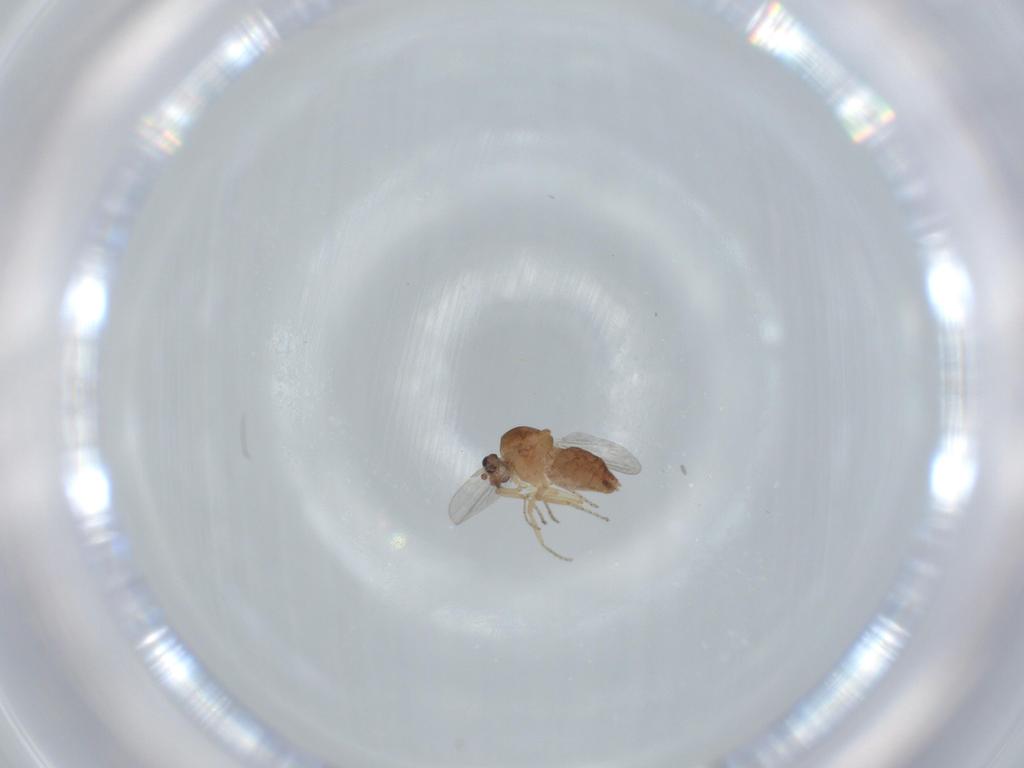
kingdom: Animalia
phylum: Arthropoda
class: Insecta
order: Diptera
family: Ceratopogonidae
